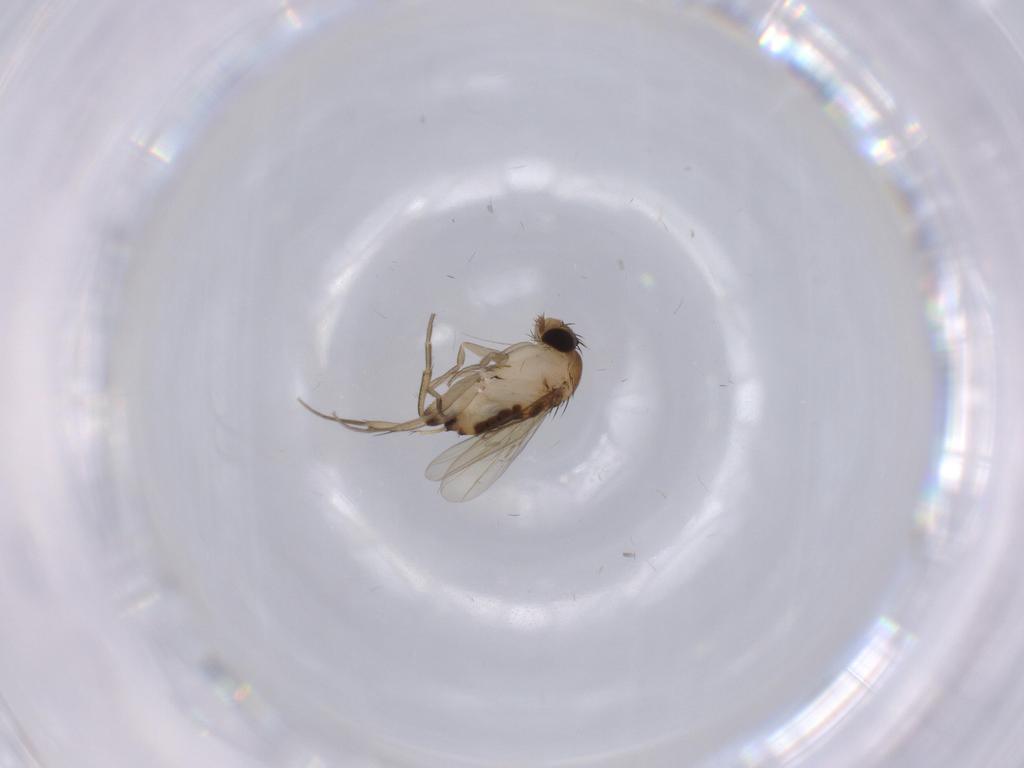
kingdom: Animalia
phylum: Arthropoda
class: Insecta
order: Diptera
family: Phoridae
